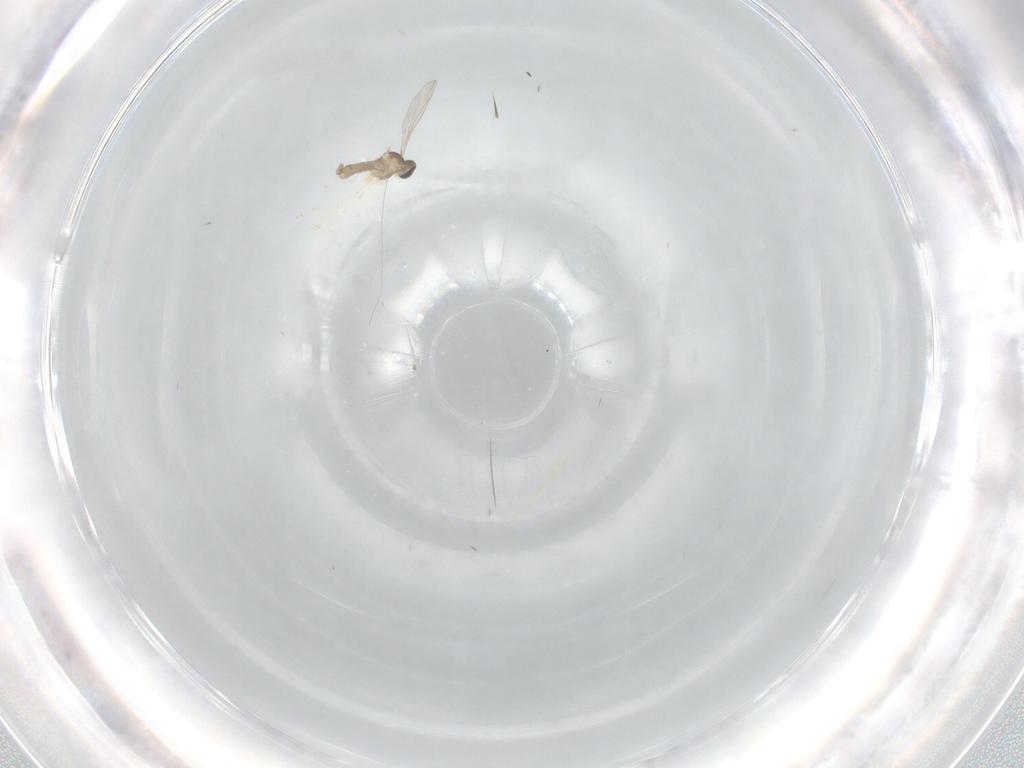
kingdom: Animalia
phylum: Arthropoda
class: Insecta
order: Diptera
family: Cecidomyiidae
